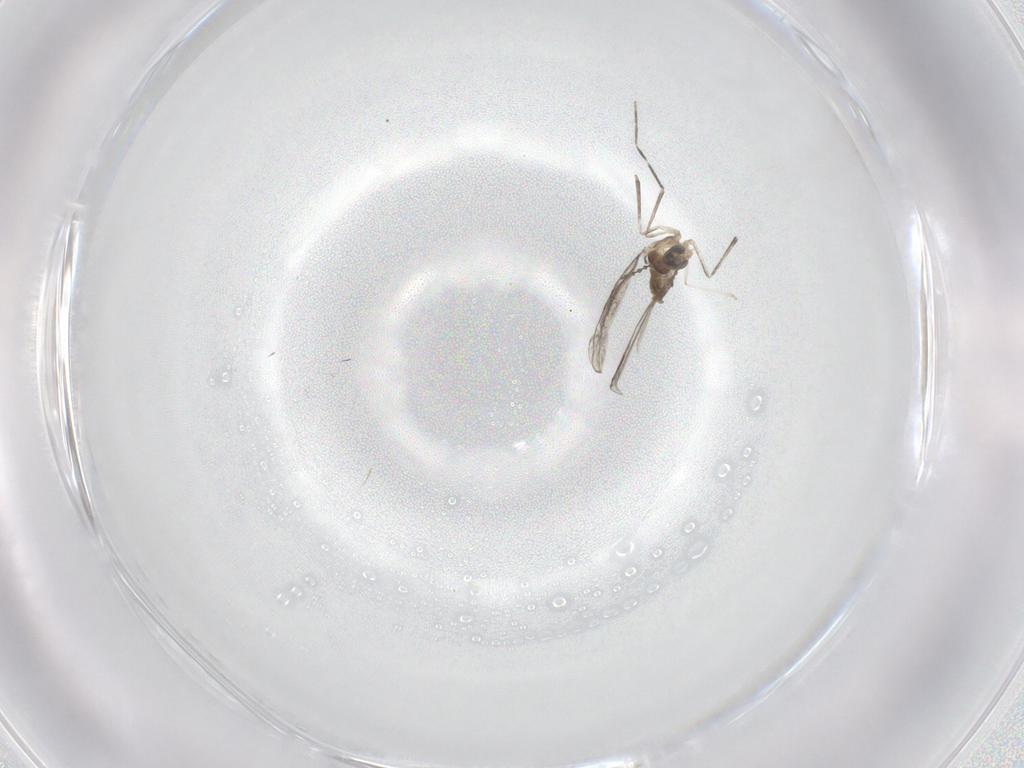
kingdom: Animalia
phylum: Arthropoda
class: Insecta
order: Diptera
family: Cecidomyiidae
